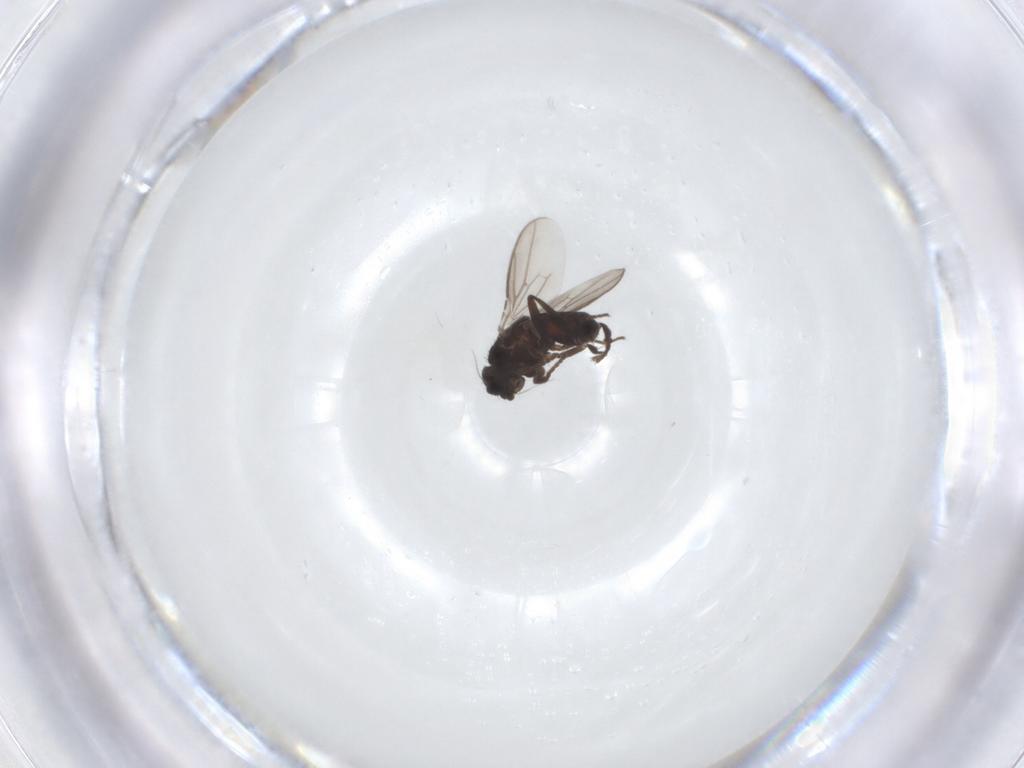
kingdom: Animalia
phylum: Arthropoda
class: Insecta
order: Diptera
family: Sphaeroceridae
